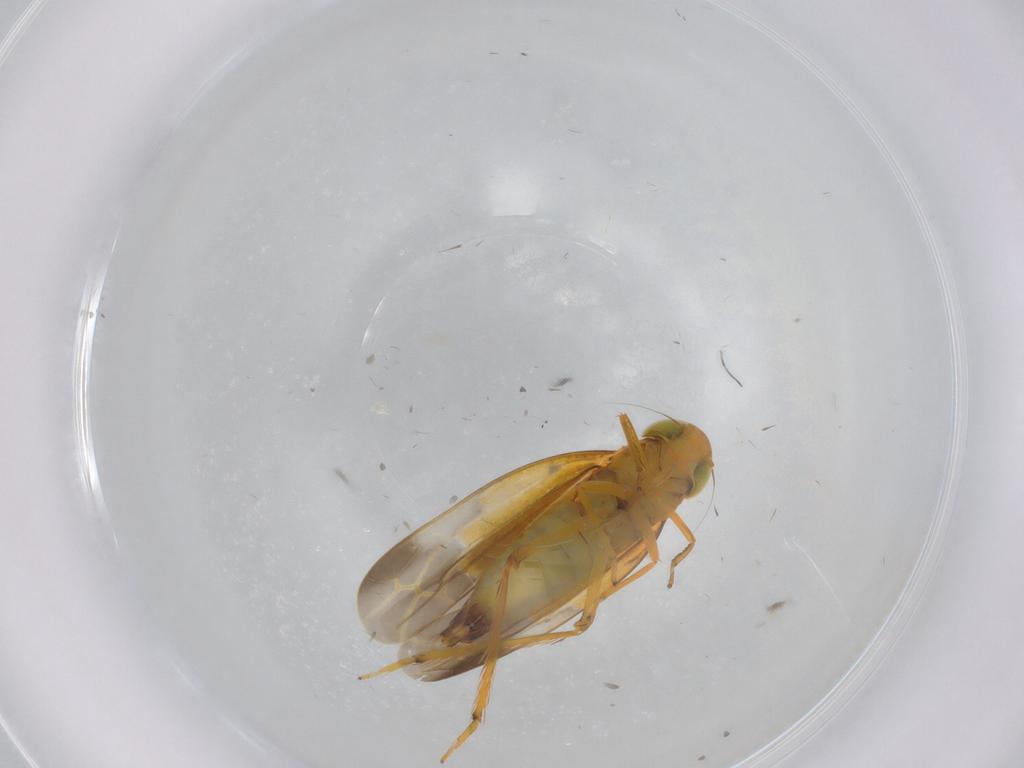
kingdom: Animalia
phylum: Arthropoda
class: Insecta
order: Hemiptera
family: Cicadellidae
